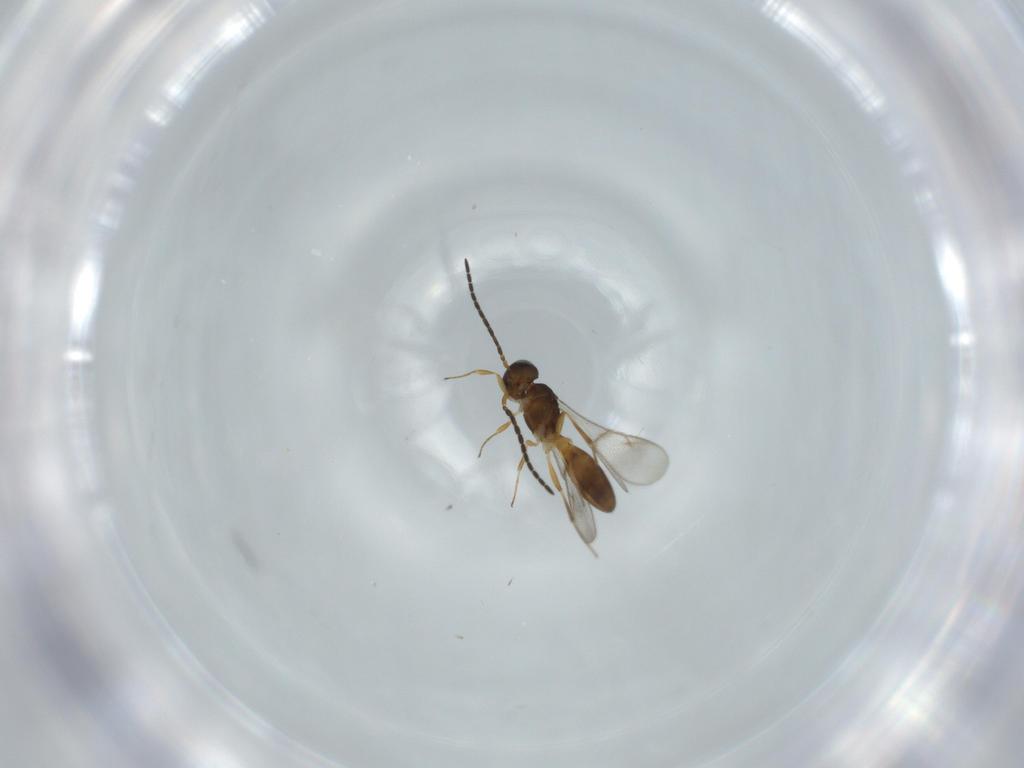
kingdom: Animalia
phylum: Arthropoda
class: Insecta
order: Hymenoptera
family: Scelionidae
